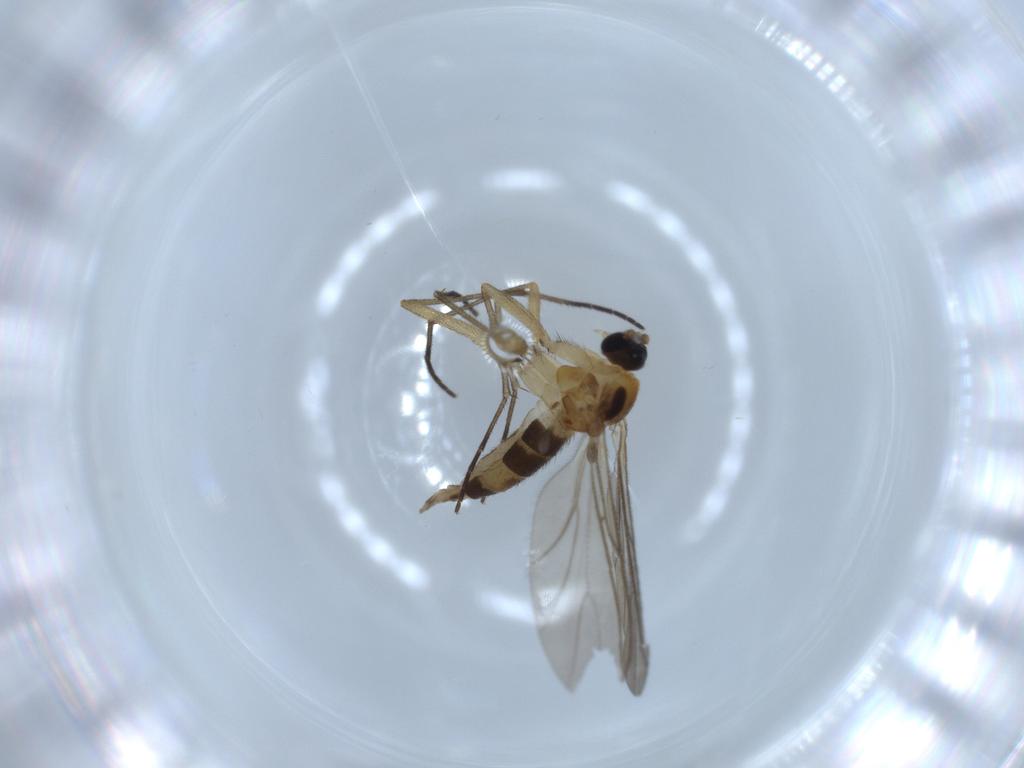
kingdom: Animalia
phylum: Arthropoda
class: Insecta
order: Diptera
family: Cecidomyiidae
